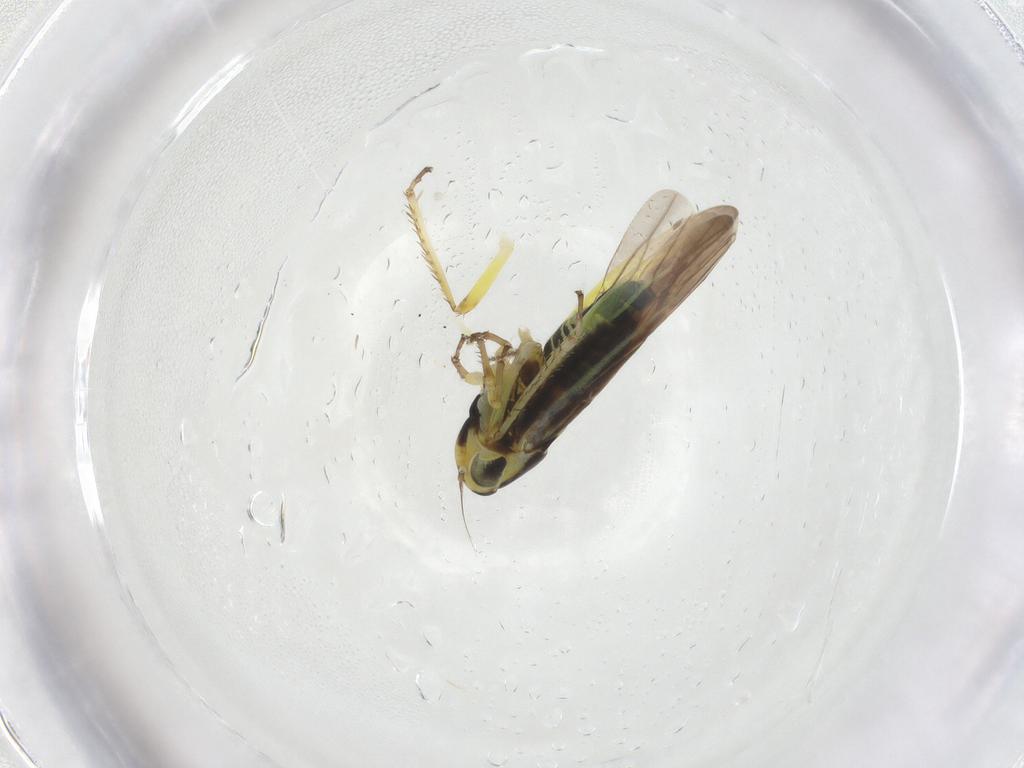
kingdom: Animalia
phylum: Arthropoda
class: Insecta
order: Hemiptera
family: Cicadellidae
